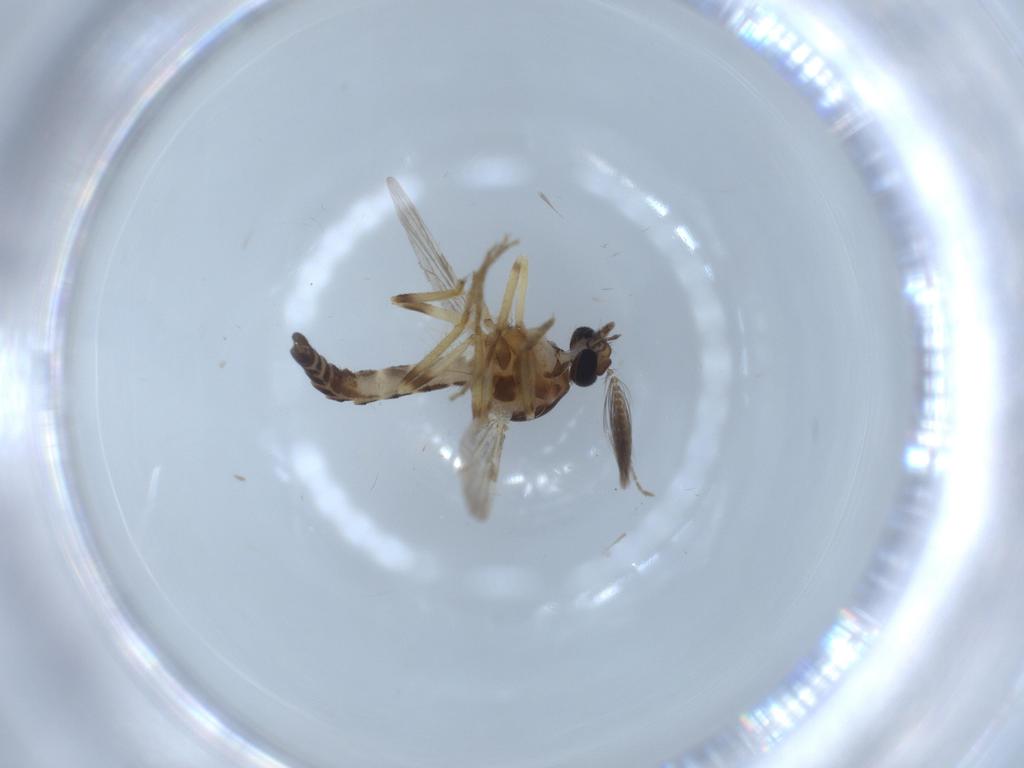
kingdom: Animalia
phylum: Arthropoda
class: Insecta
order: Diptera
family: Ceratopogonidae
